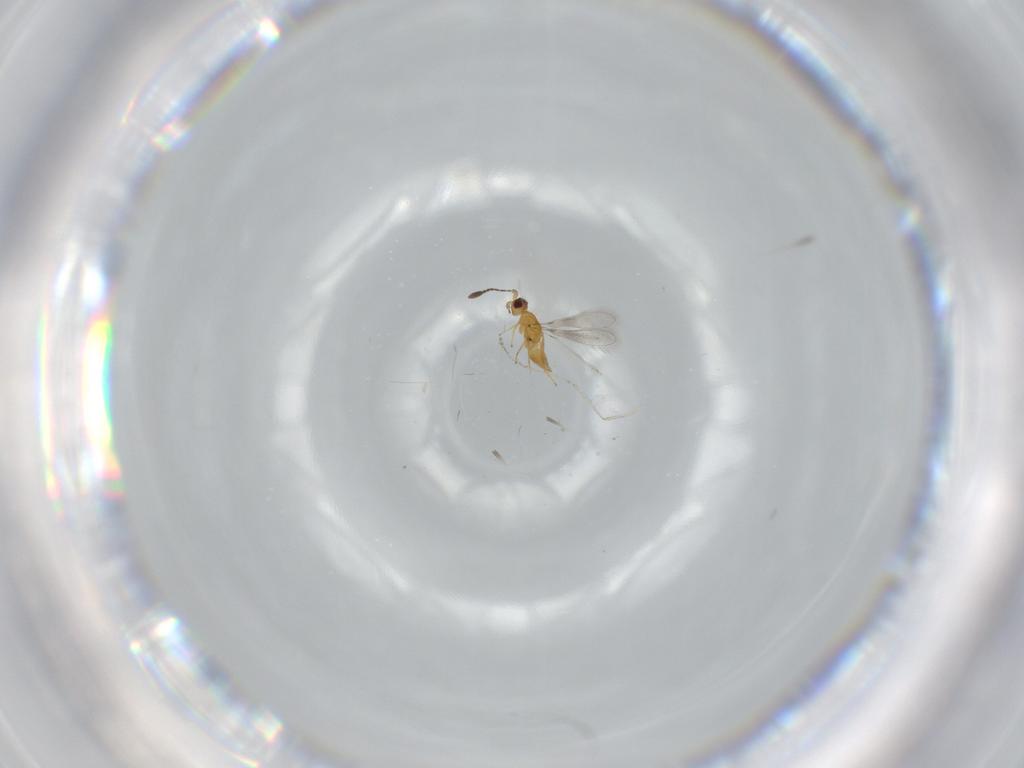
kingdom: Animalia
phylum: Arthropoda
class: Insecta
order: Hymenoptera
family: Mymaridae
